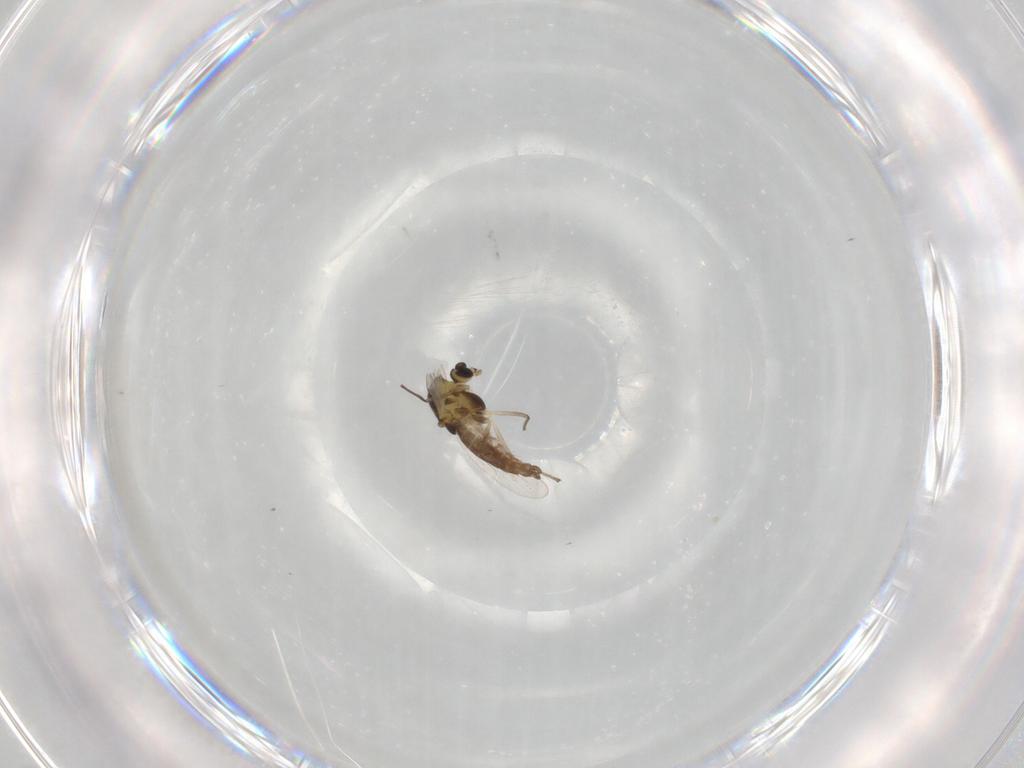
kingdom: Animalia
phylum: Arthropoda
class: Insecta
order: Diptera
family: Chironomidae
